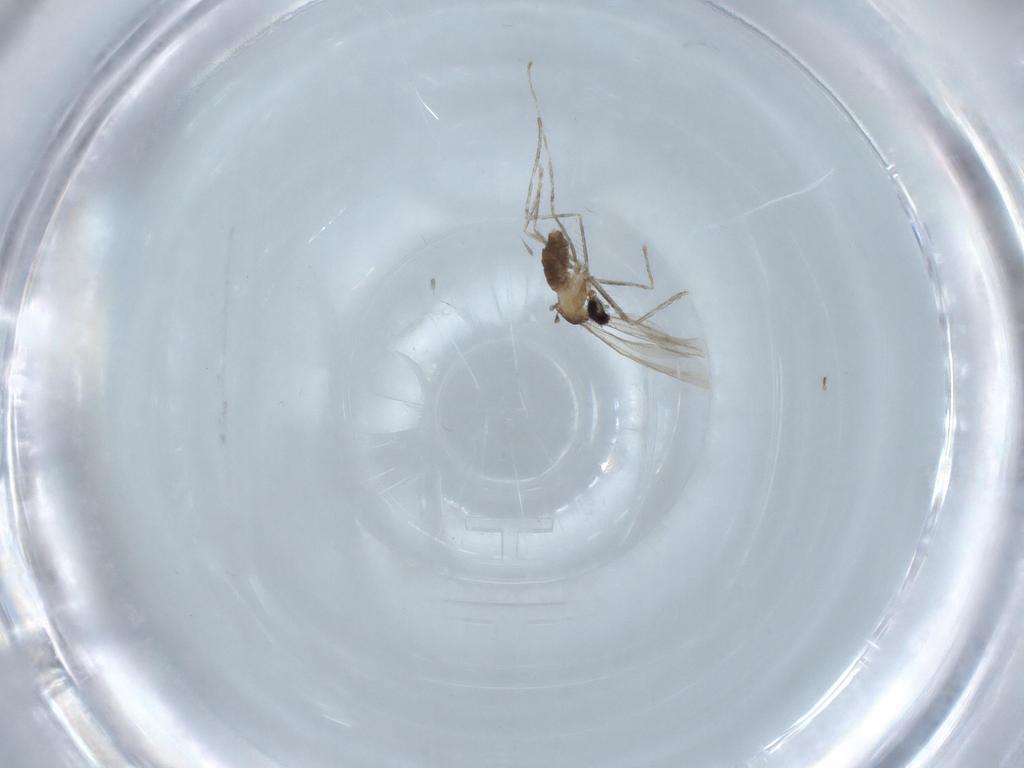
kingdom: Animalia
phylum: Arthropoda
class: Insecta
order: Diptera
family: Cecidomyiidae
